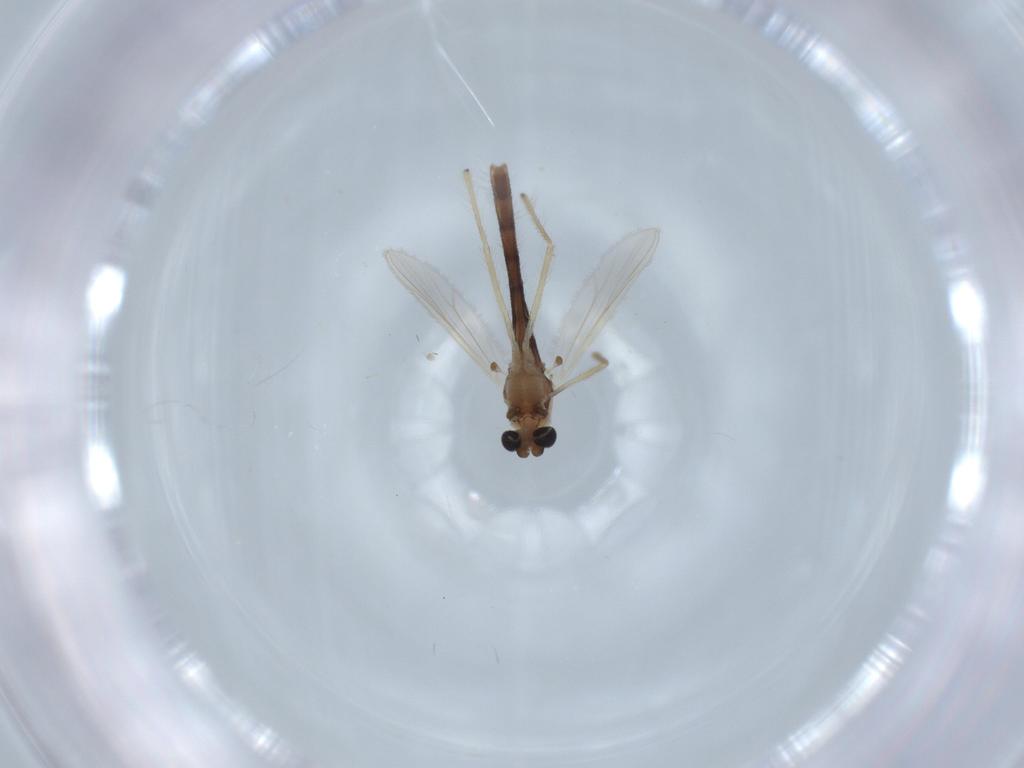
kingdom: Animalia
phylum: Arthropoda
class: Insecta
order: Diptera
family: Chironomidae
